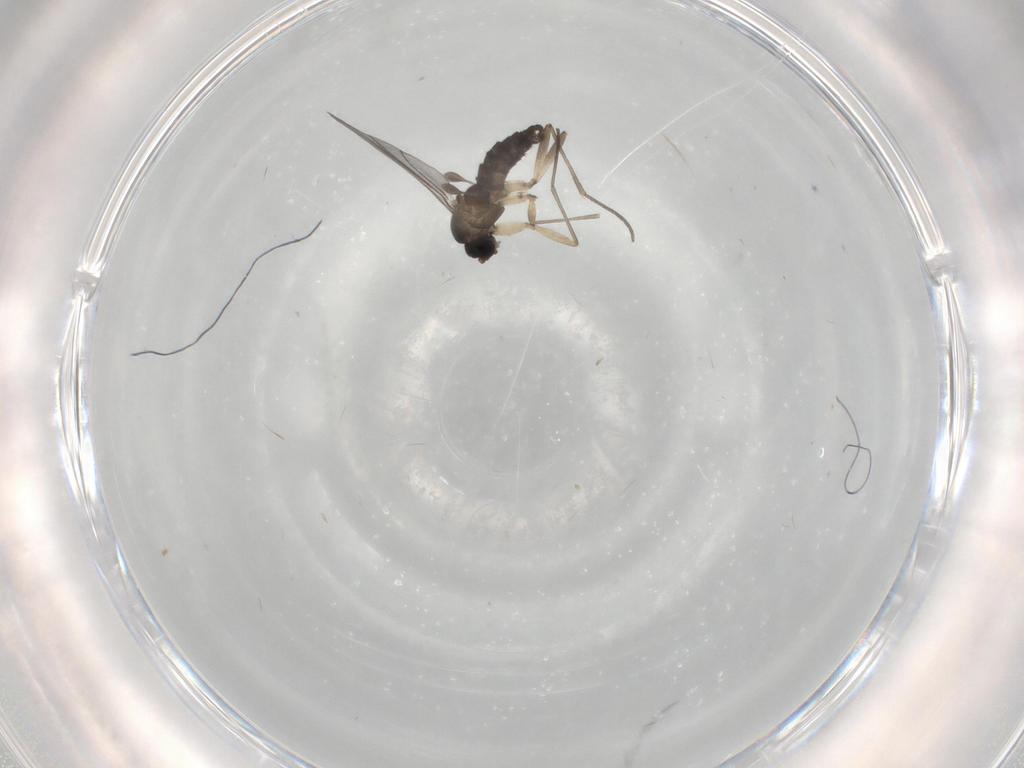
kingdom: Animalia
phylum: Arthropoda
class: Insecta
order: Diptera
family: Sciaridae
